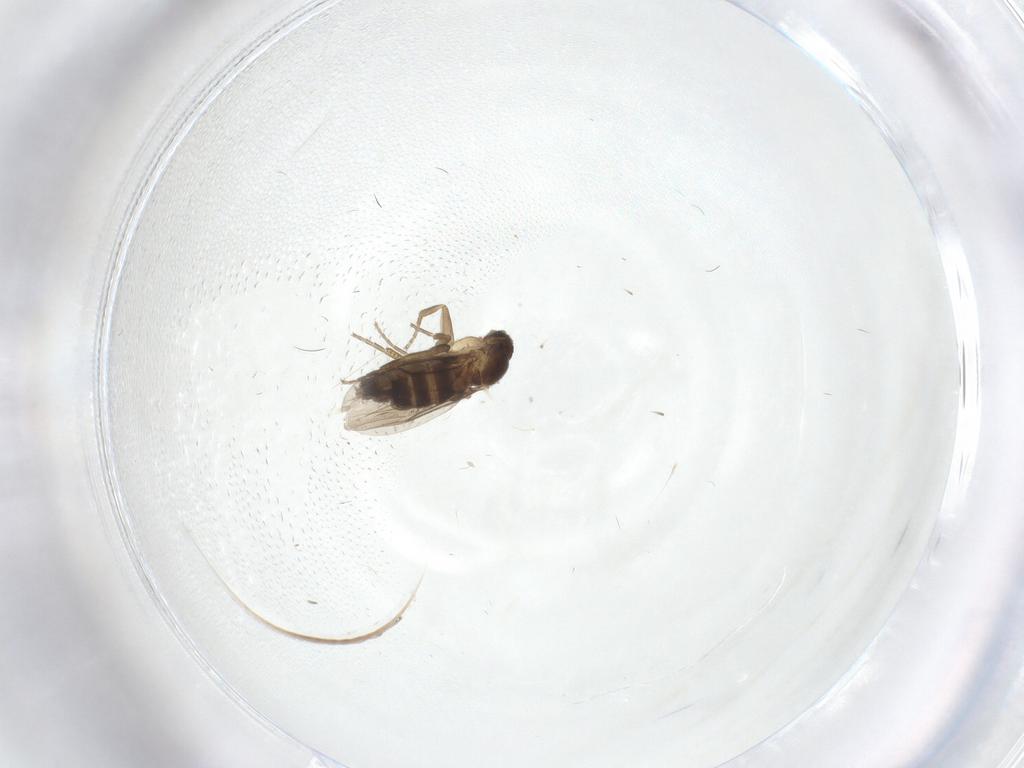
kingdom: Animalia
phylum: Arthropoda
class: Insecta
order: Diptera
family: Phoridae
